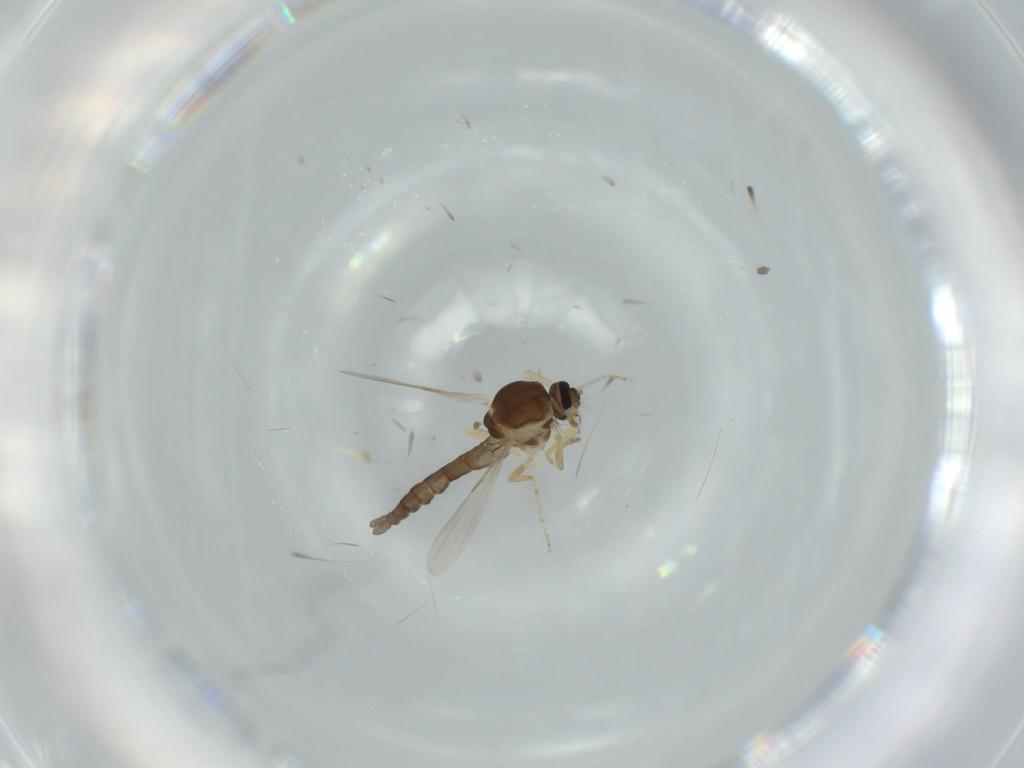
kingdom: Animalia
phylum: Arthropoda
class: Insecta
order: Diptera
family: Ceratopogonidae
